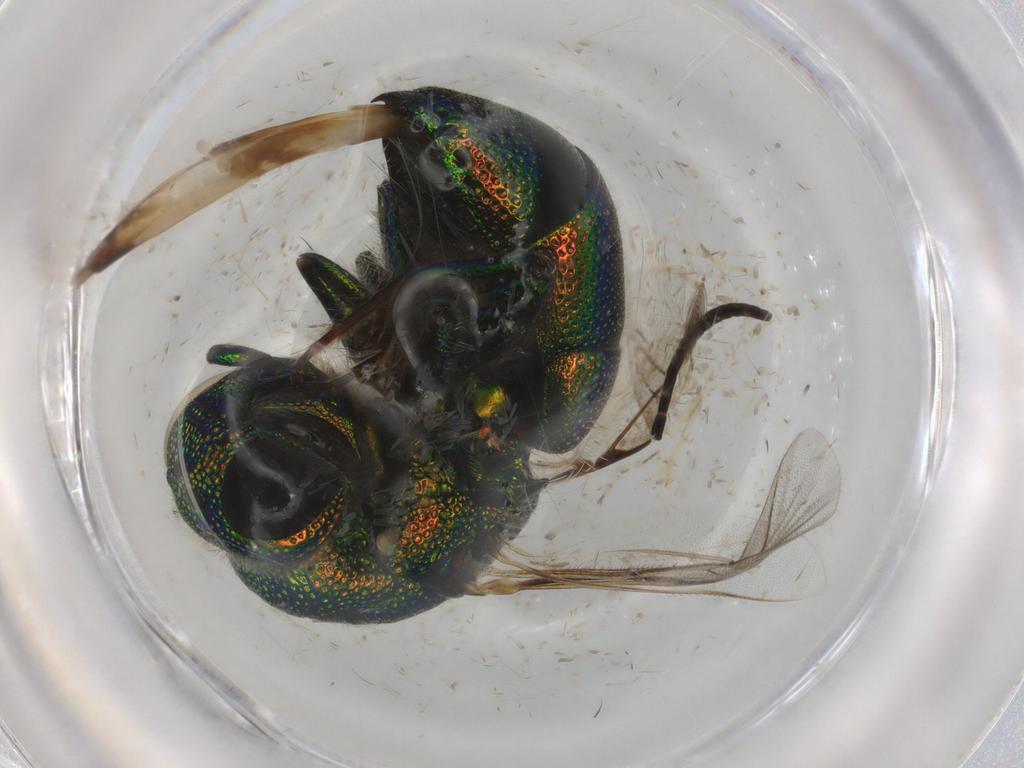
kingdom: Animalia
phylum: Arthropoda
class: Insecta
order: Hymenoptera
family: Chrysididae
